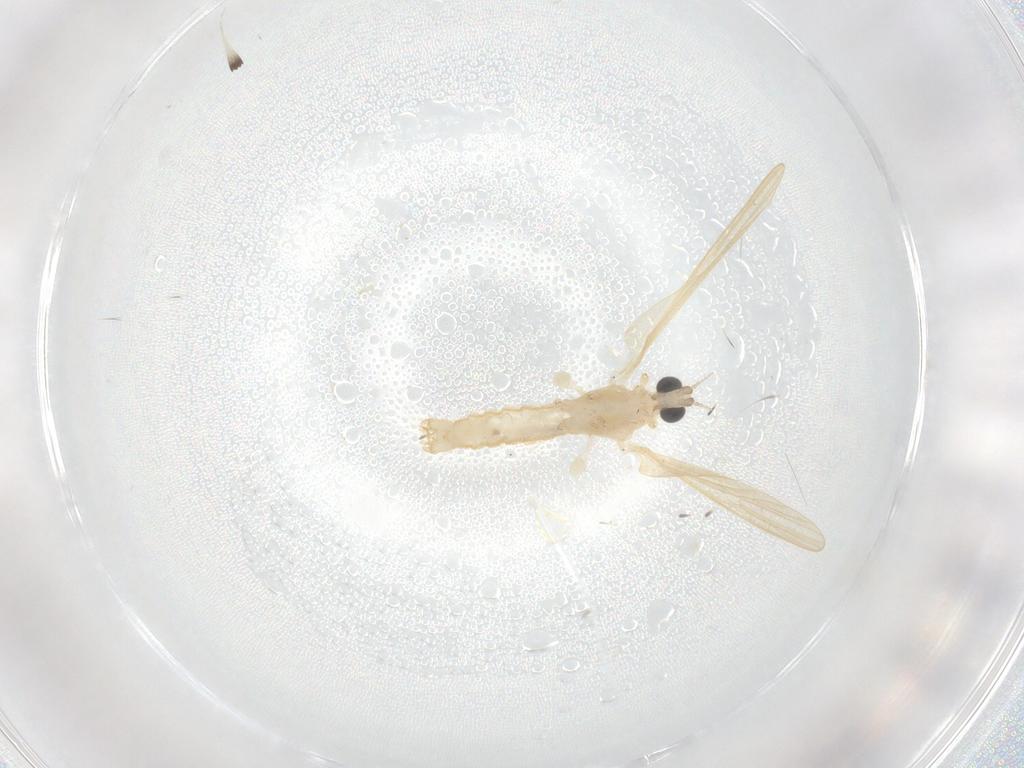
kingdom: Animalia
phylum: Arthropoda
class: Insecta
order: Diptera
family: Limoniidae
